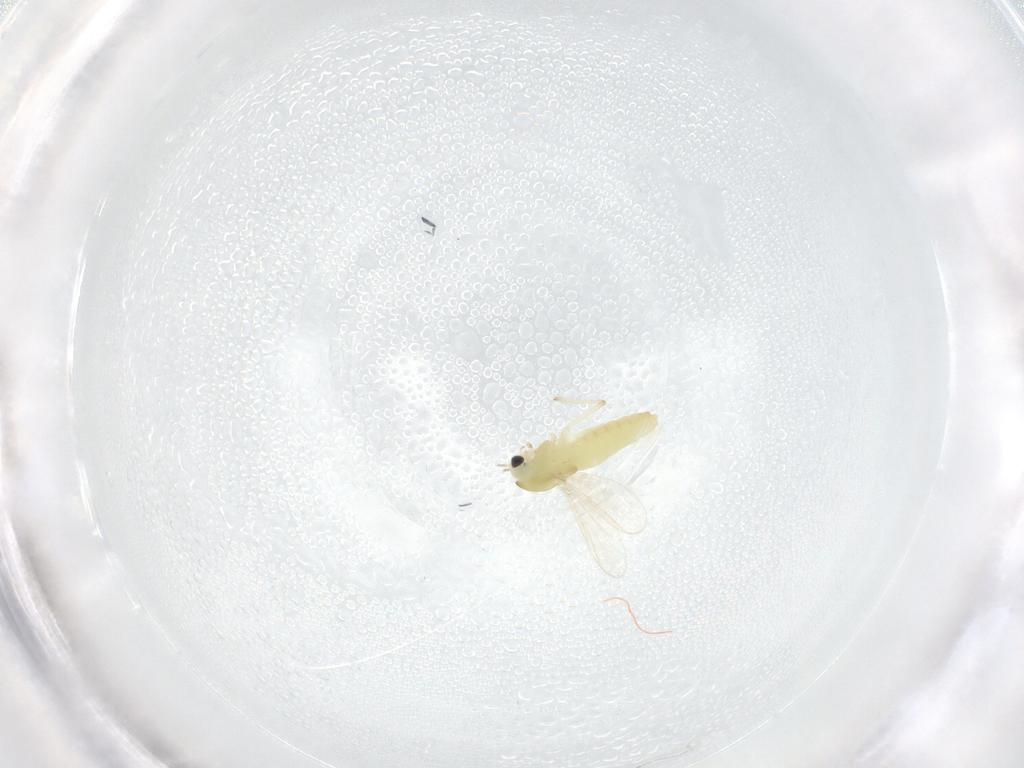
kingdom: Animalia
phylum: Arthropoda
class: Insecta
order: Diptera
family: Chironomidae
